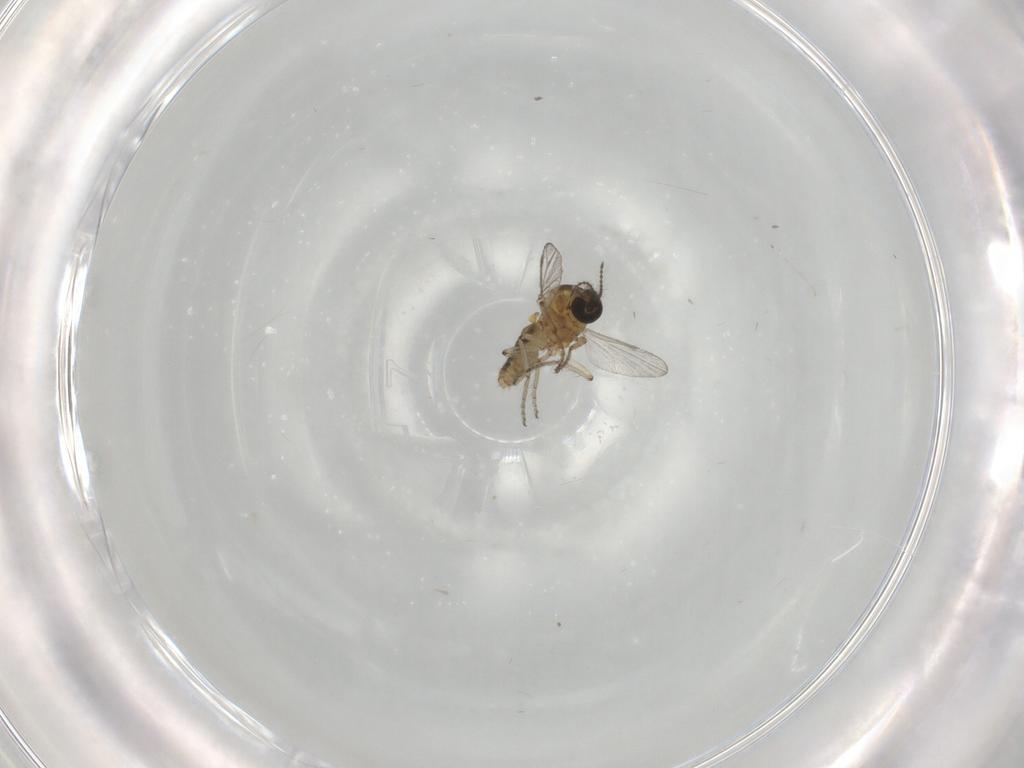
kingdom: Animalia
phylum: Arthropoda
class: Insecta
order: Diptera
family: Ceratopogonidae
